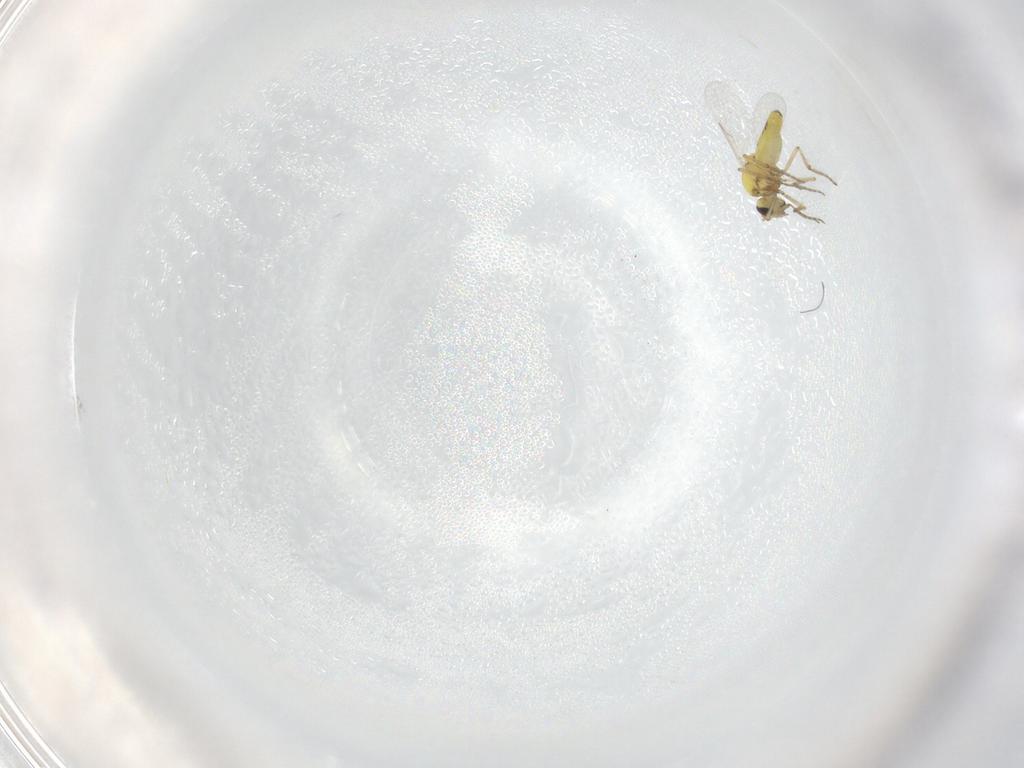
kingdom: Animalia
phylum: Arthropoda
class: Insecta
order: Diptera
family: Ceratopogonidae
